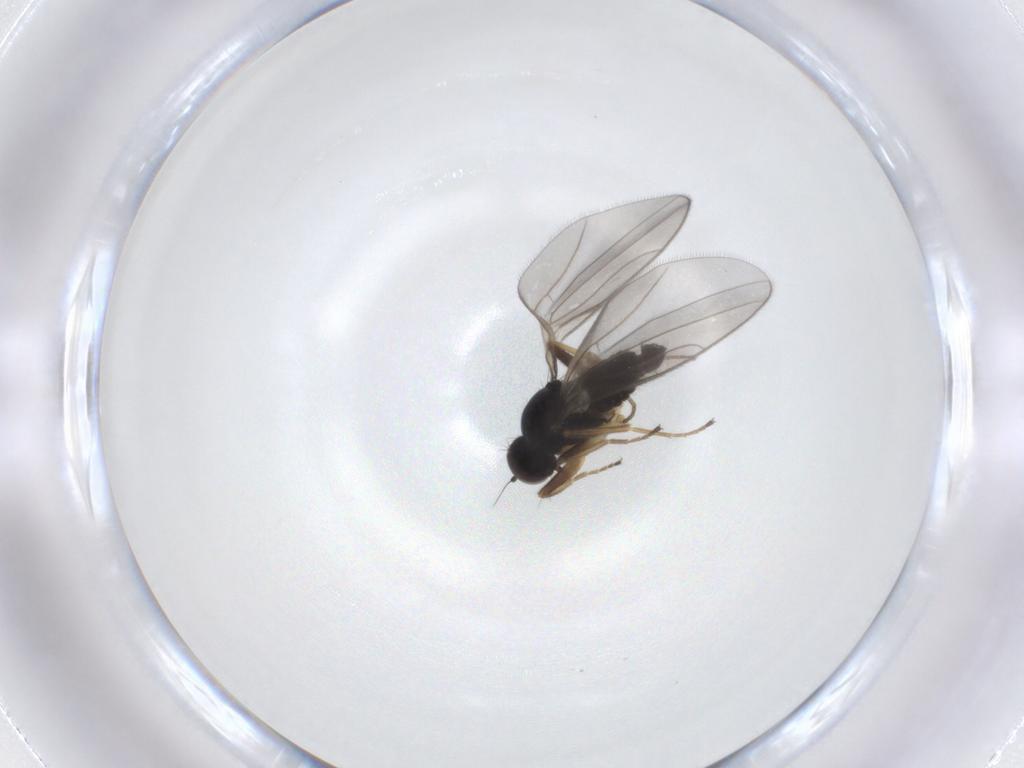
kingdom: Animalia
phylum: Arthropoda
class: Insecta
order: Diptera
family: Hybotidae
